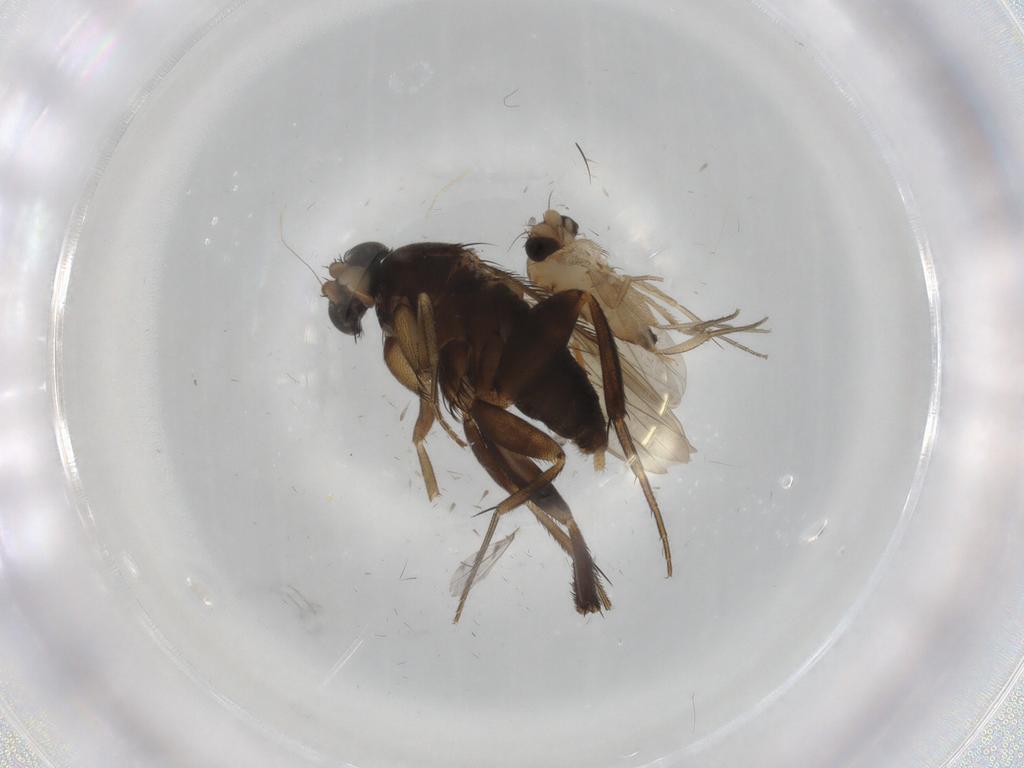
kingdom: Animalia
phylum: Arthropoda
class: Insecta
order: Diptera
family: Phoridae
